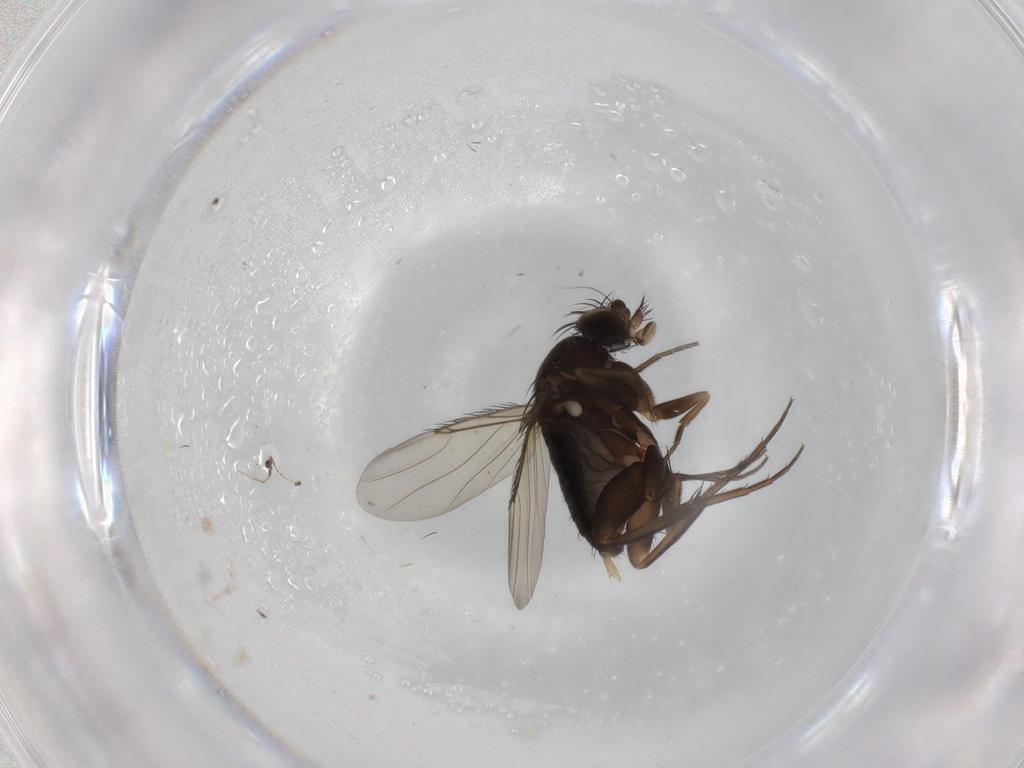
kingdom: Animalia
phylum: Arthropoda
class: Insecta
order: Diptera
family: Phoridae
